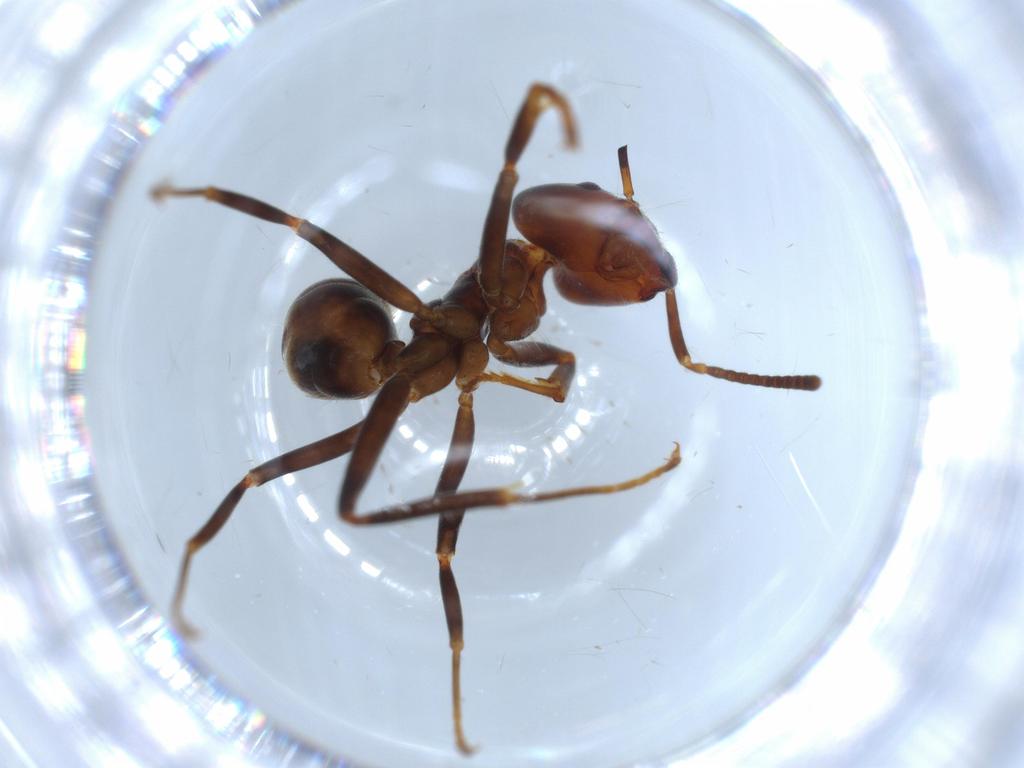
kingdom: Animalia
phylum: Arthropoda
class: Insecta
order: Hymenoptera
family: Formicidae
